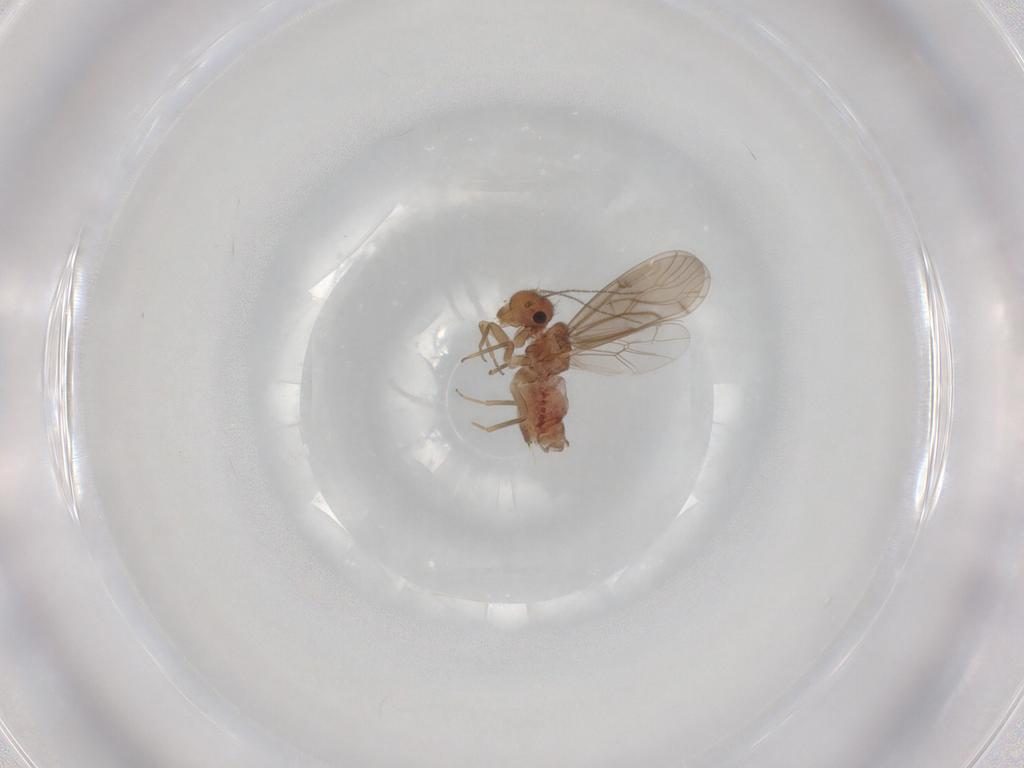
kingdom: Animalia
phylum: Arthropoda
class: Insecta
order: Psocodea
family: Ectopsocidae
